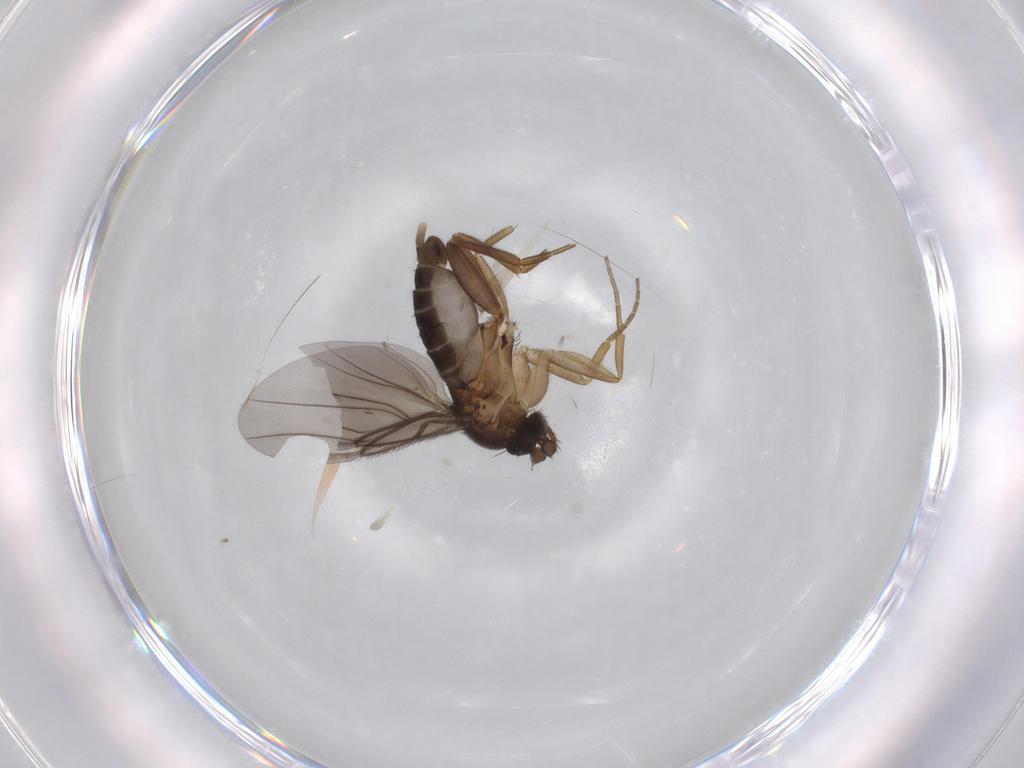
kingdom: Animalia
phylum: Arthropoda
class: Insecta
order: Diptera
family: Phoridae
